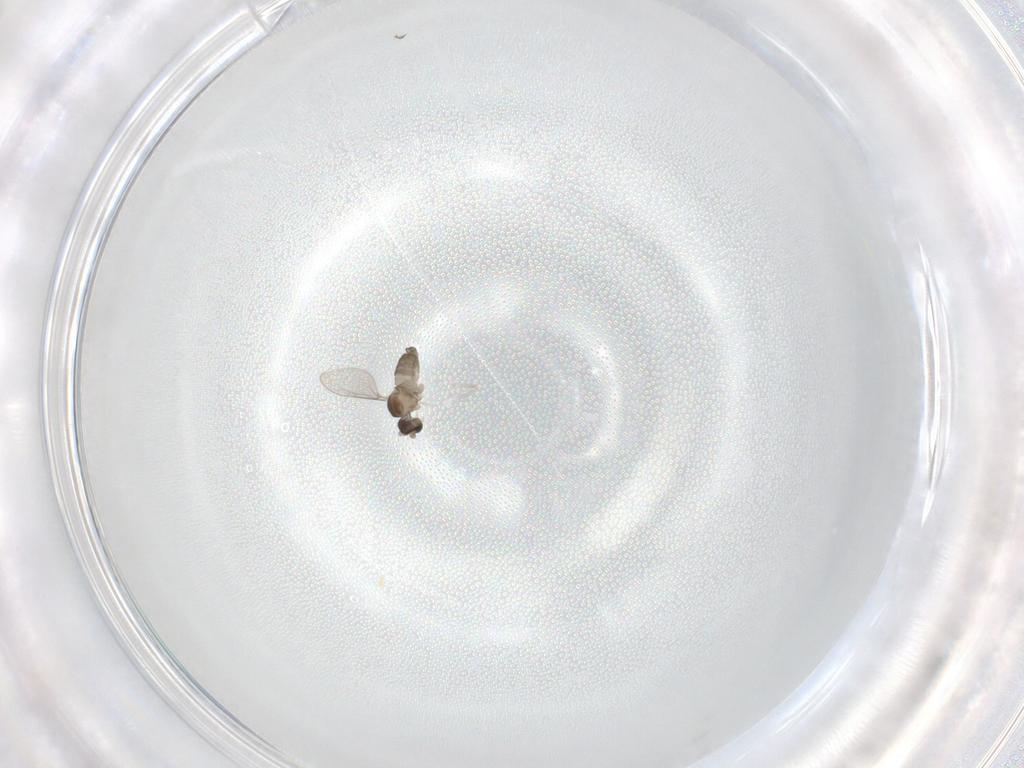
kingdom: Animalia
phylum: Arthropoda
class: Insecta
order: Diptera
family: Cecidomyiidae
